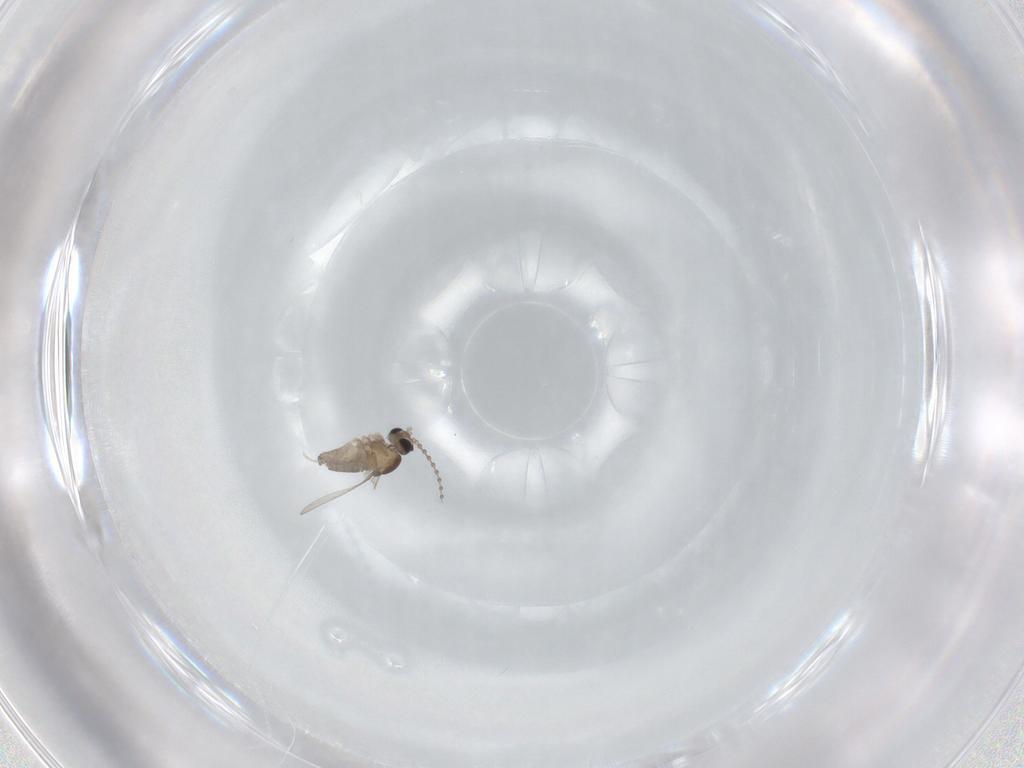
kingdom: Animalia
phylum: Arthropoda
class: Insecta
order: Diptera
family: Cecidomyiidae
